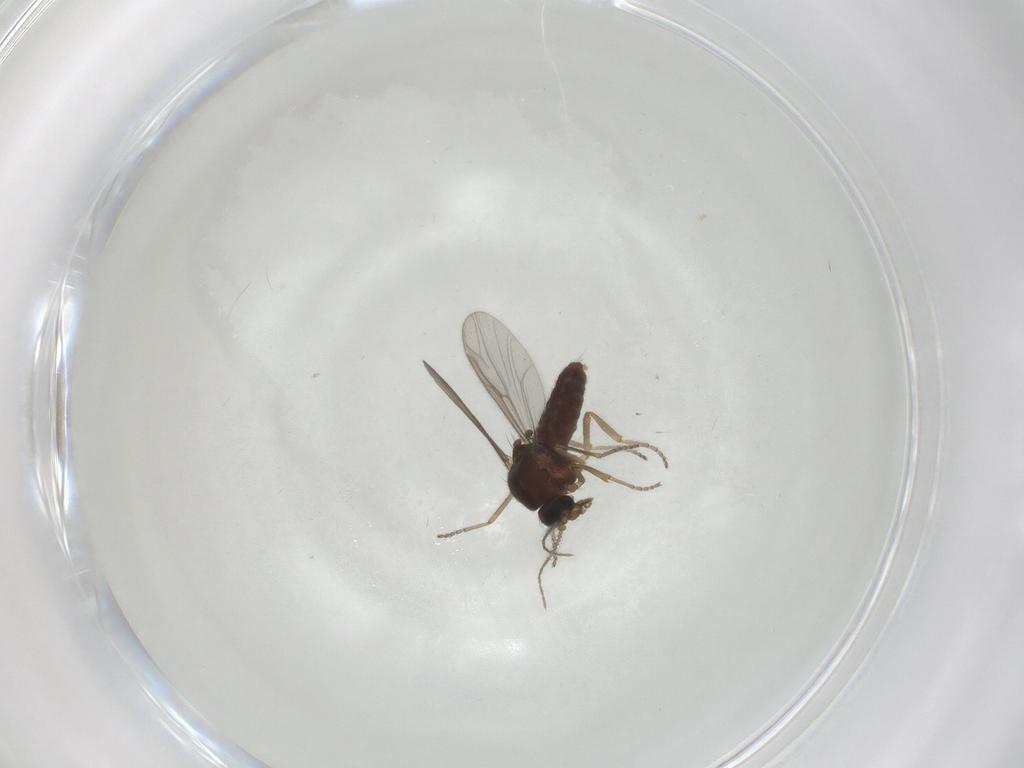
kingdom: Animalia
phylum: Arthropoda
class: Insecta
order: Diptera
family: Ceratopogonidae
